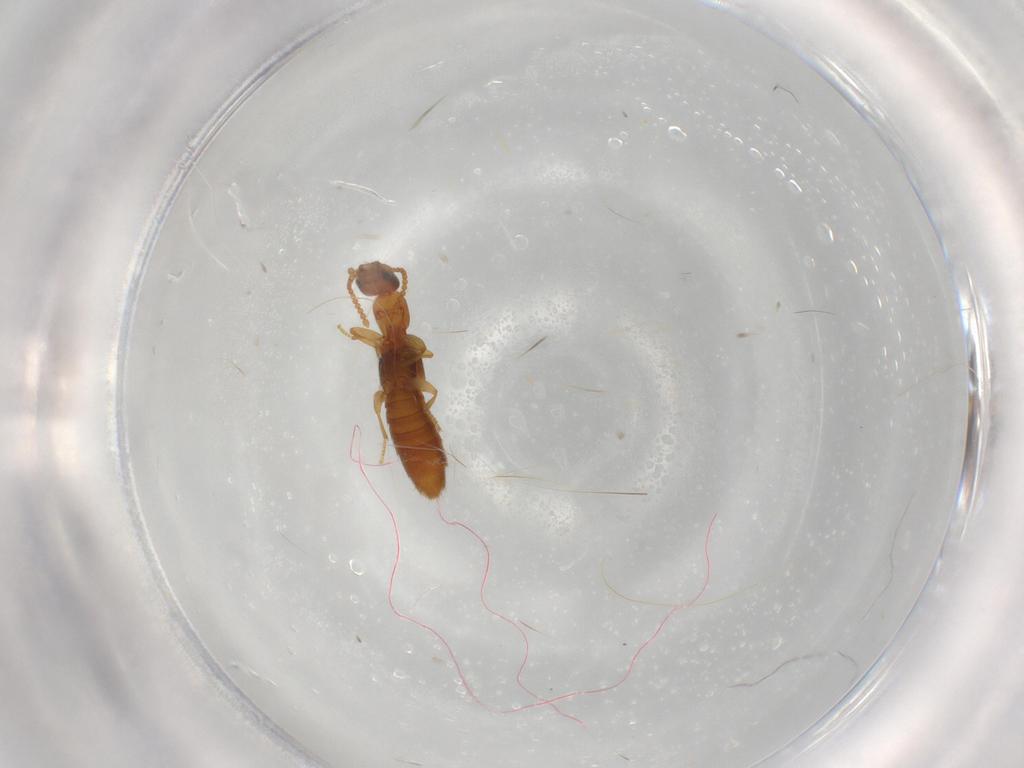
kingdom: Animalia
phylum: Arthropoda
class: Insecta
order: Coleoptera
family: Staphylinidae
